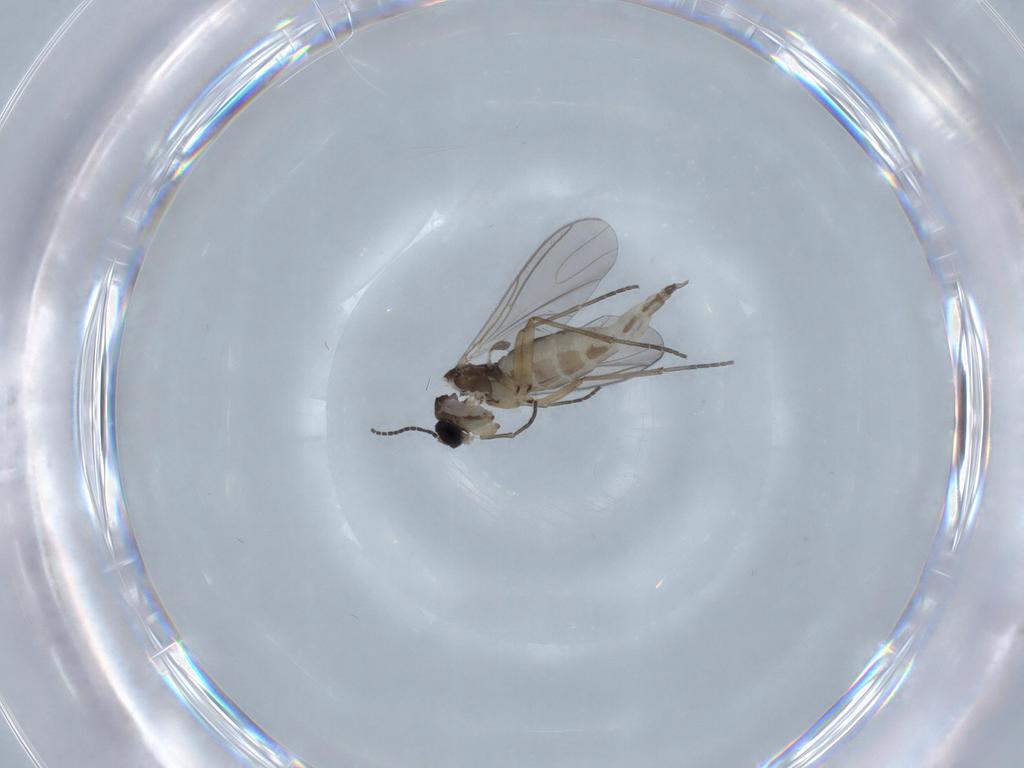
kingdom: Animalia
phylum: Arthropoda
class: Insecta
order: Diptera
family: Sciaridae
